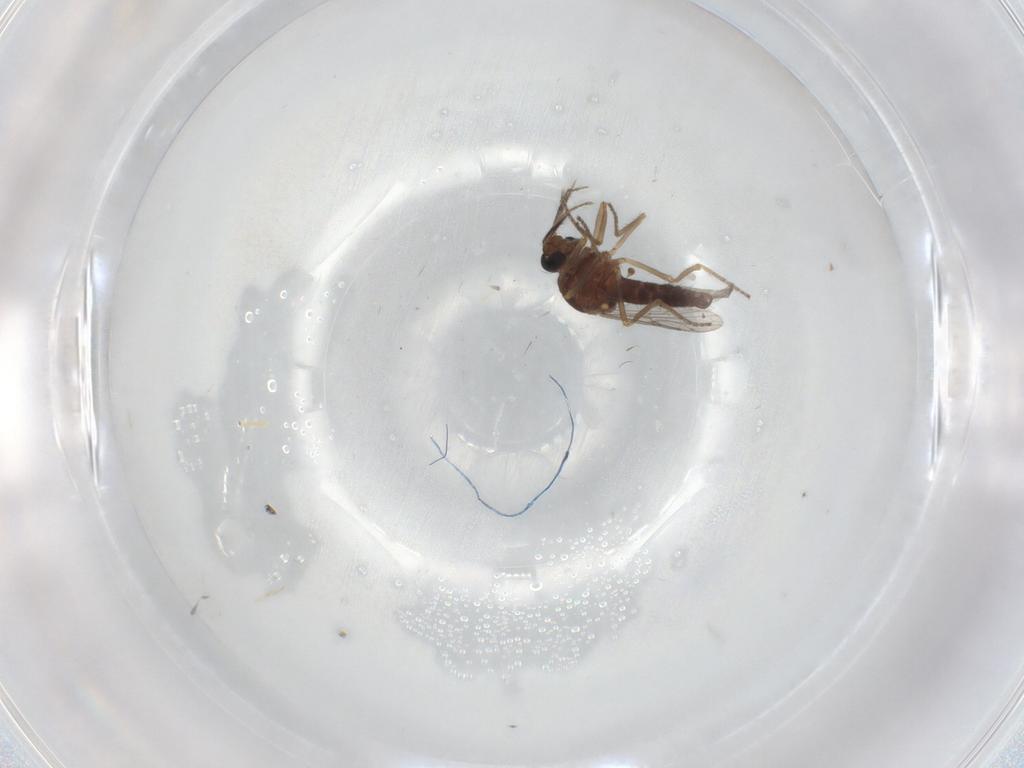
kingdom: Animalia
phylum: Arthropoda
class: Insecta
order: Diptera
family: Ceratopogonidae
